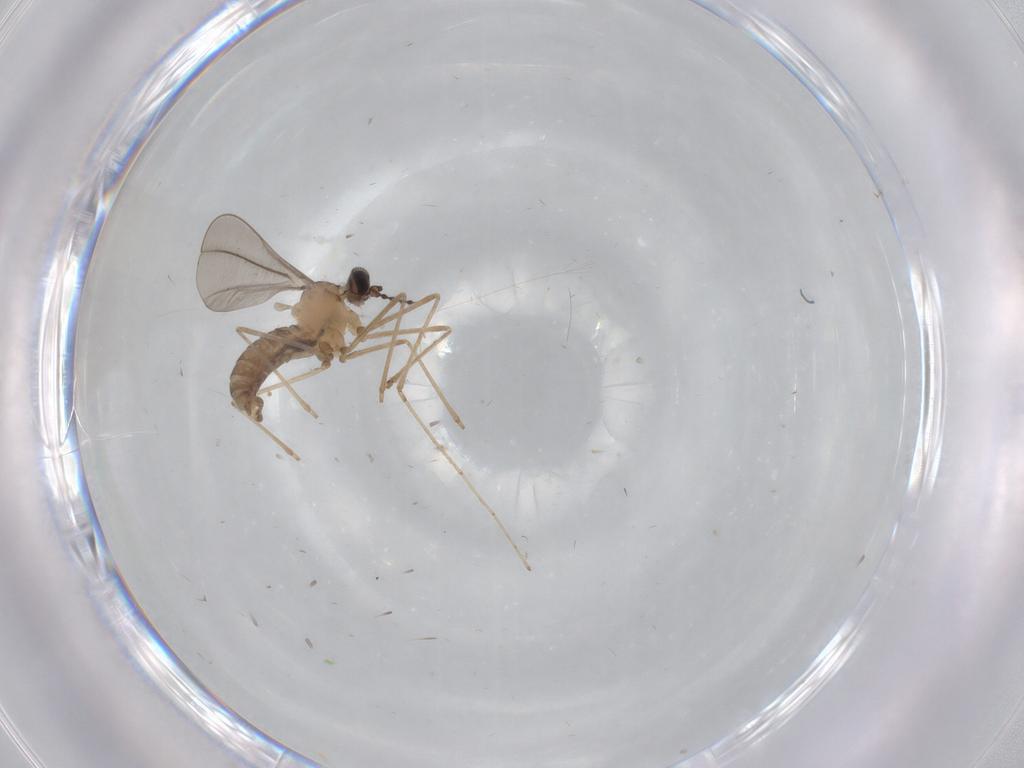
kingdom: Animalia
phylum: Arthropoda
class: Insecta
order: Diptera
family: Cecidomyiidae
